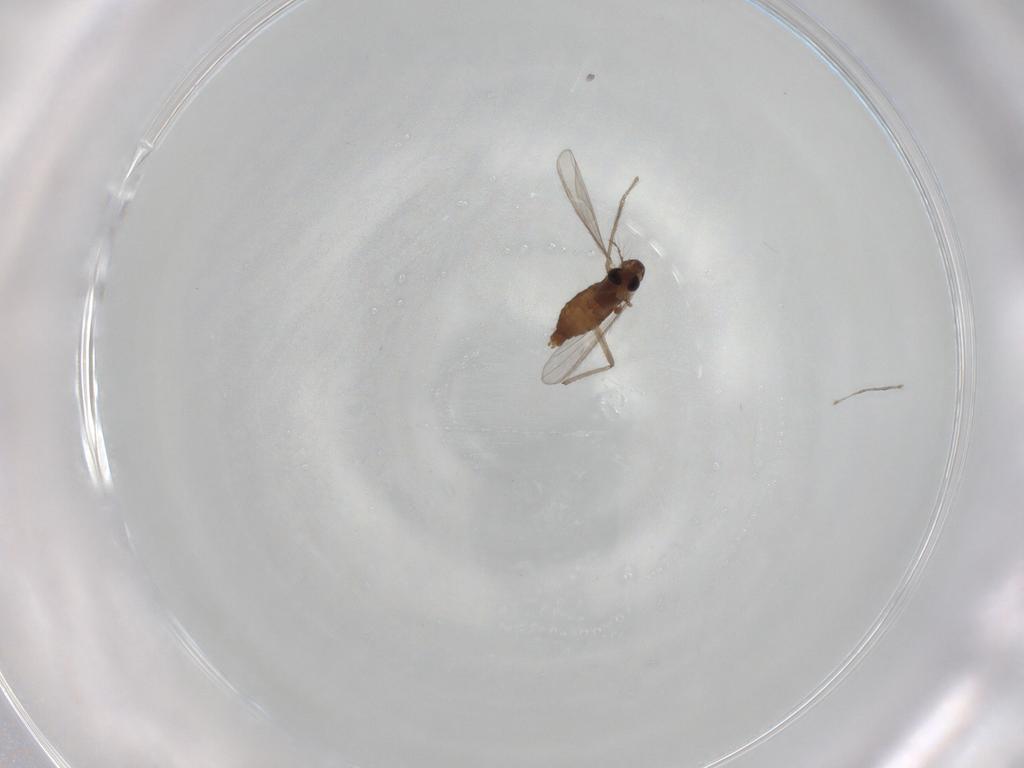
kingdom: Animalia
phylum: Arthropoda
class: Insecta
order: Diptera
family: Chironomidae
